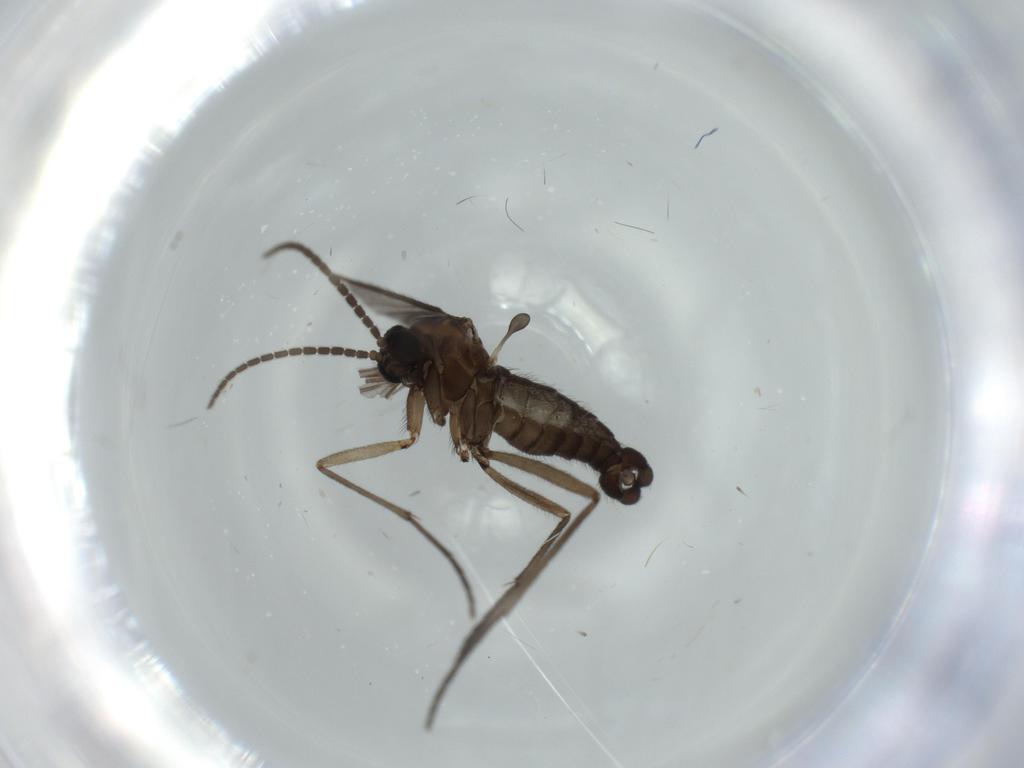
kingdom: Animalia
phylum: Arthropoda
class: Insecta
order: Diptera
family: Sciaridae
